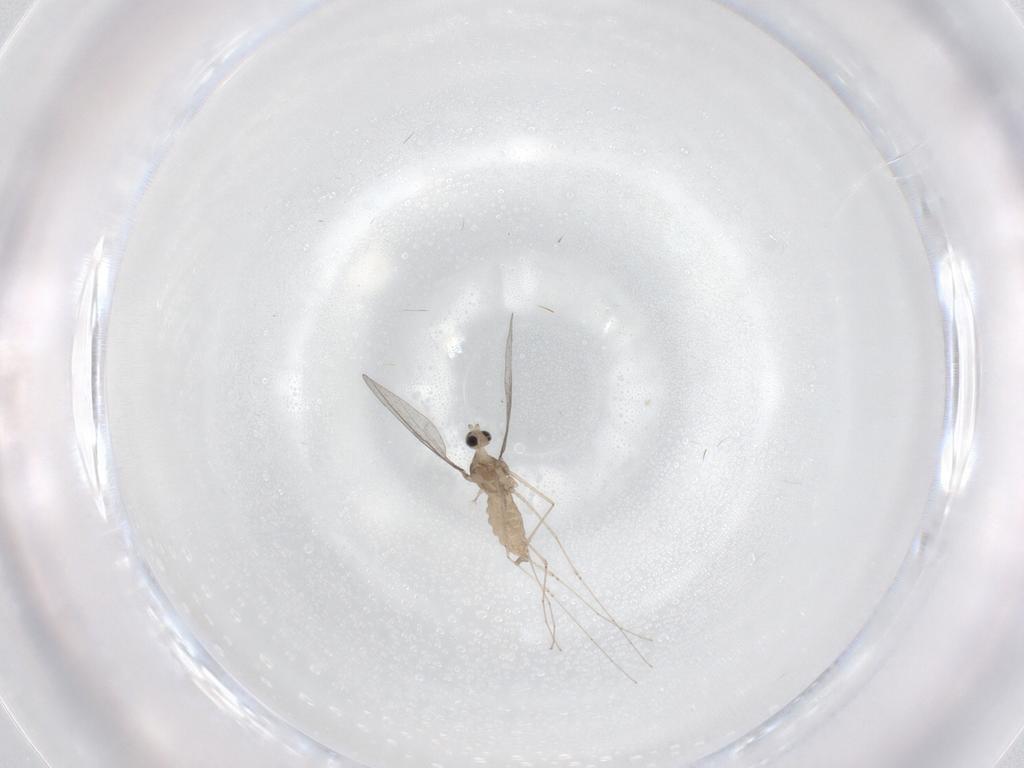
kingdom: Animalia
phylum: Arthropoda
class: Insecta
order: Diptera
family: Cecidomyiidae
